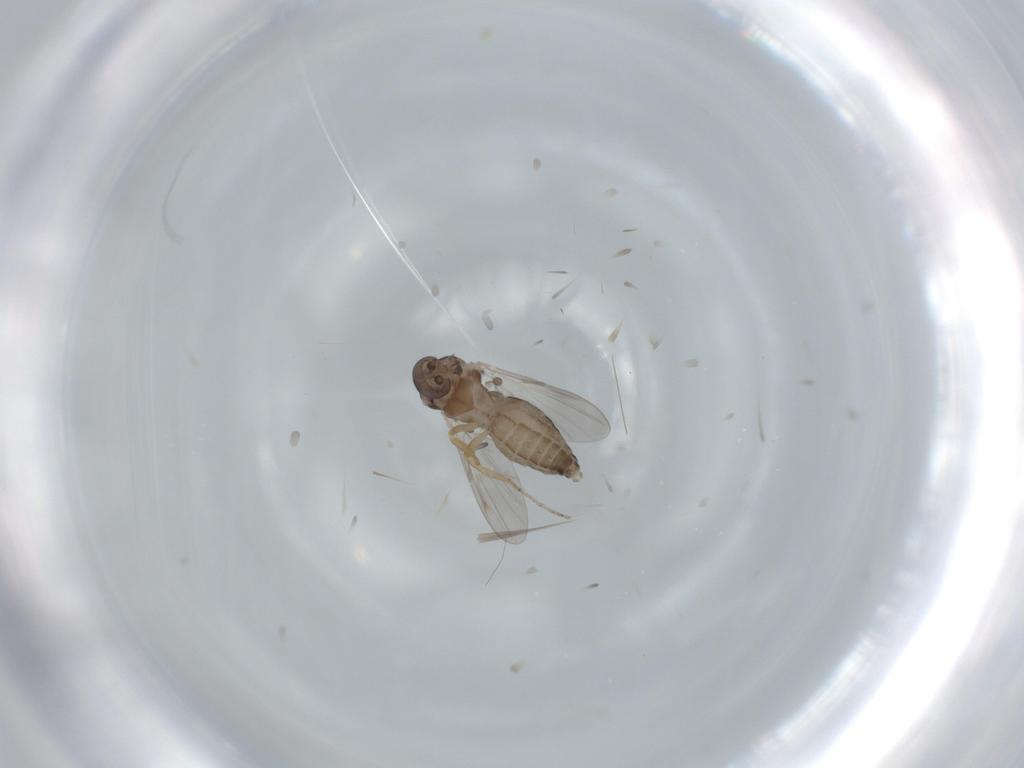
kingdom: Animalia
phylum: Arthropoda
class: Insecta
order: Diptera
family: Ceratopogonidae
